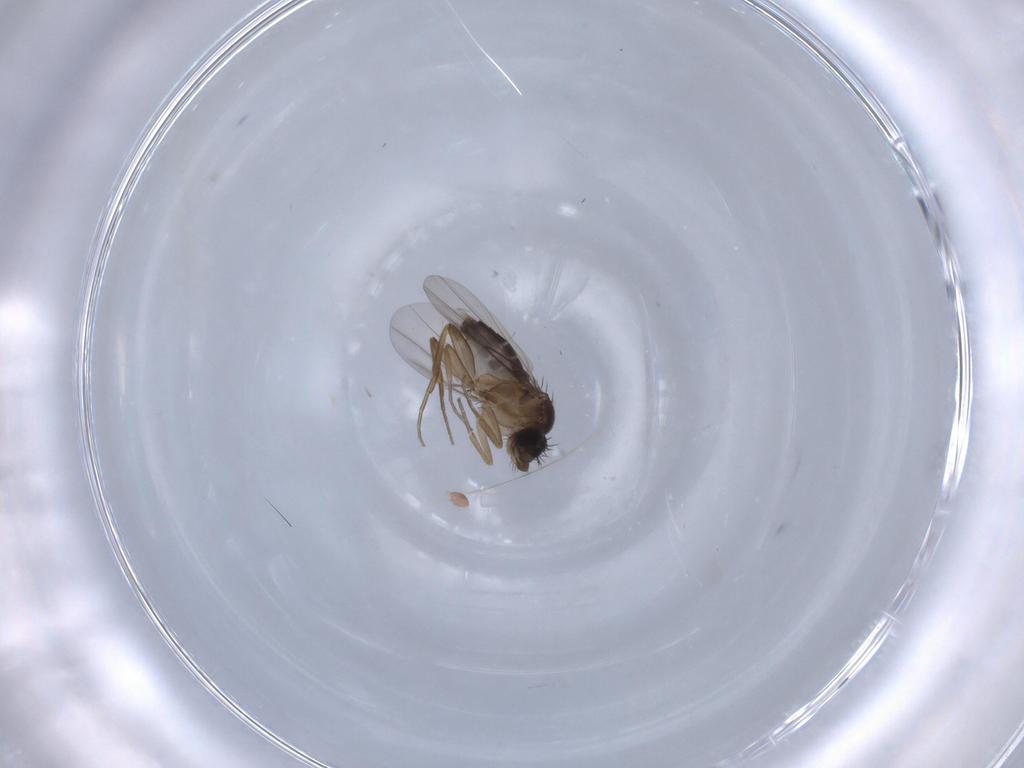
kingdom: Animalia
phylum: Arthropoda
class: Insecta
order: Diptera
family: Phoridae
